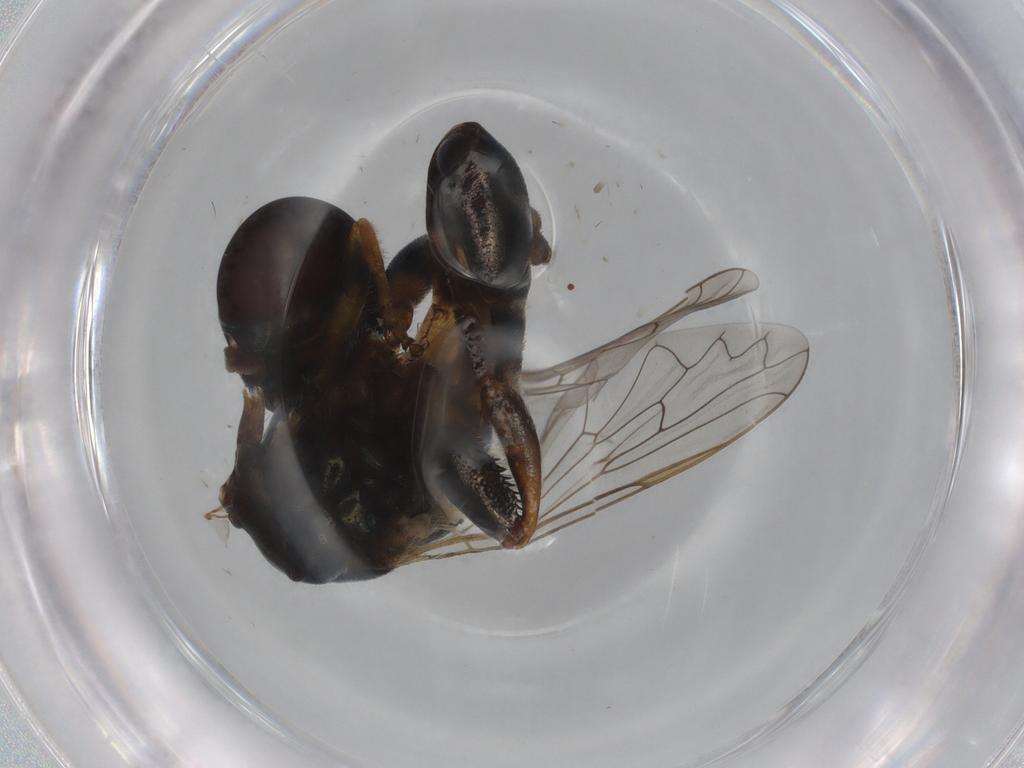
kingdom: Animalia
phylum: Arthropoda
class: Insecta
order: Diptera
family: Syrphidae
